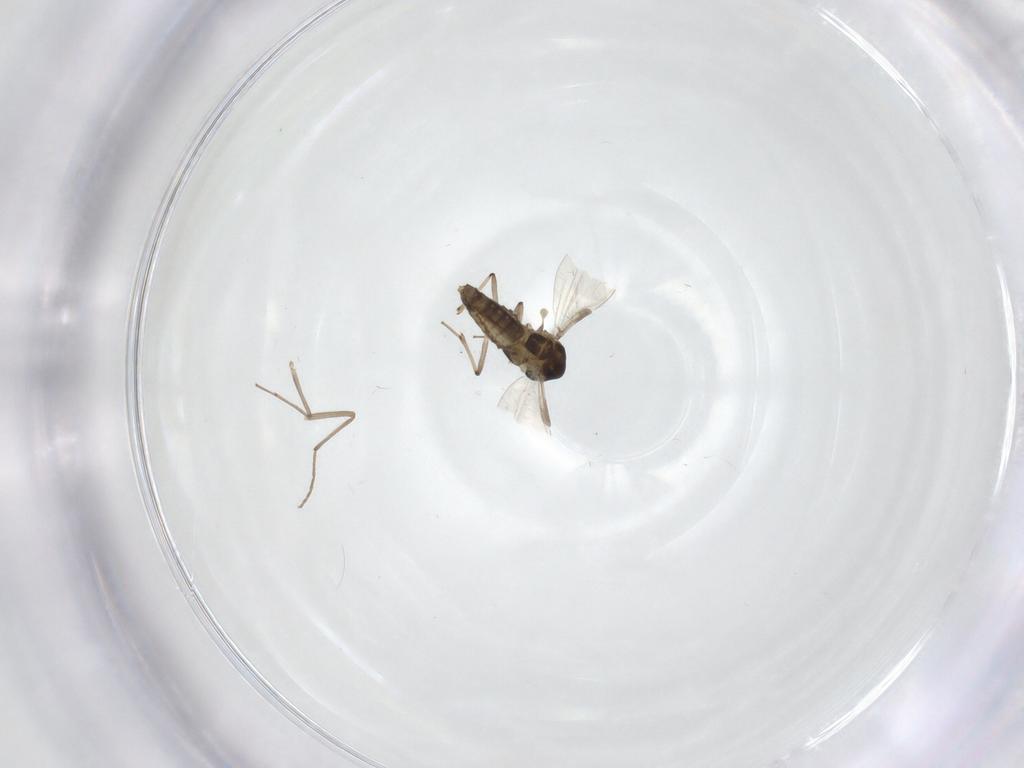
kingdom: Animalia
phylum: Arthropoda
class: Insecta
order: Diptera
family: Chironomidae
